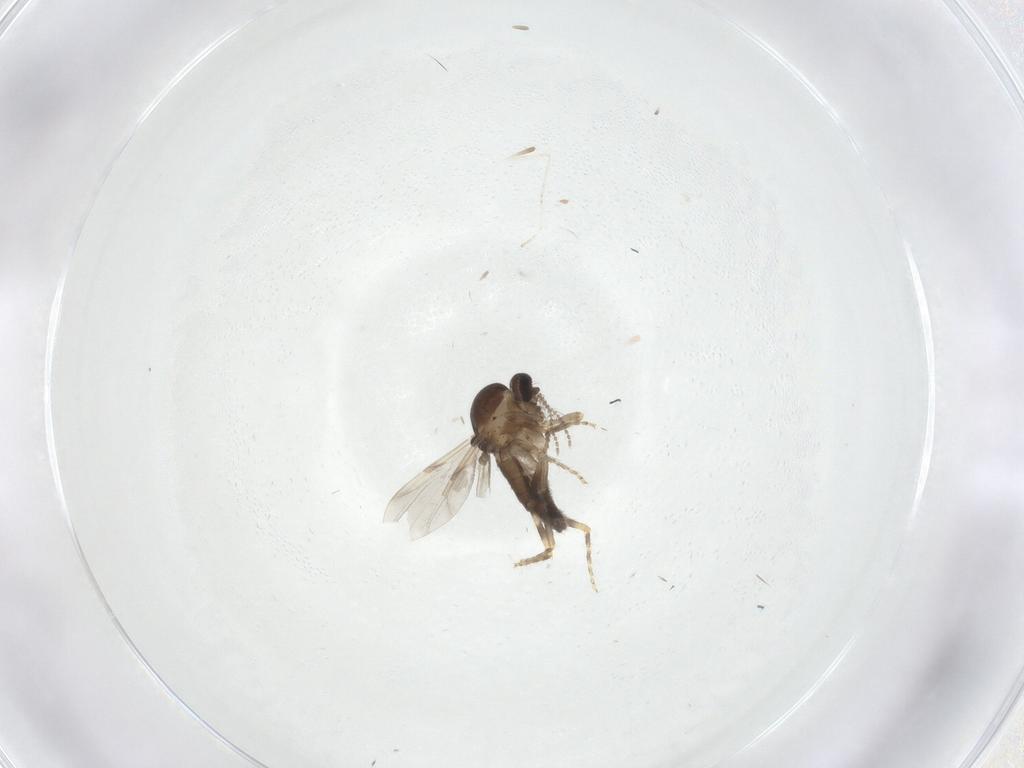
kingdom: Animalia
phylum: Arthropoda
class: Insecta
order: Diptera
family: Ceratopogonidae
